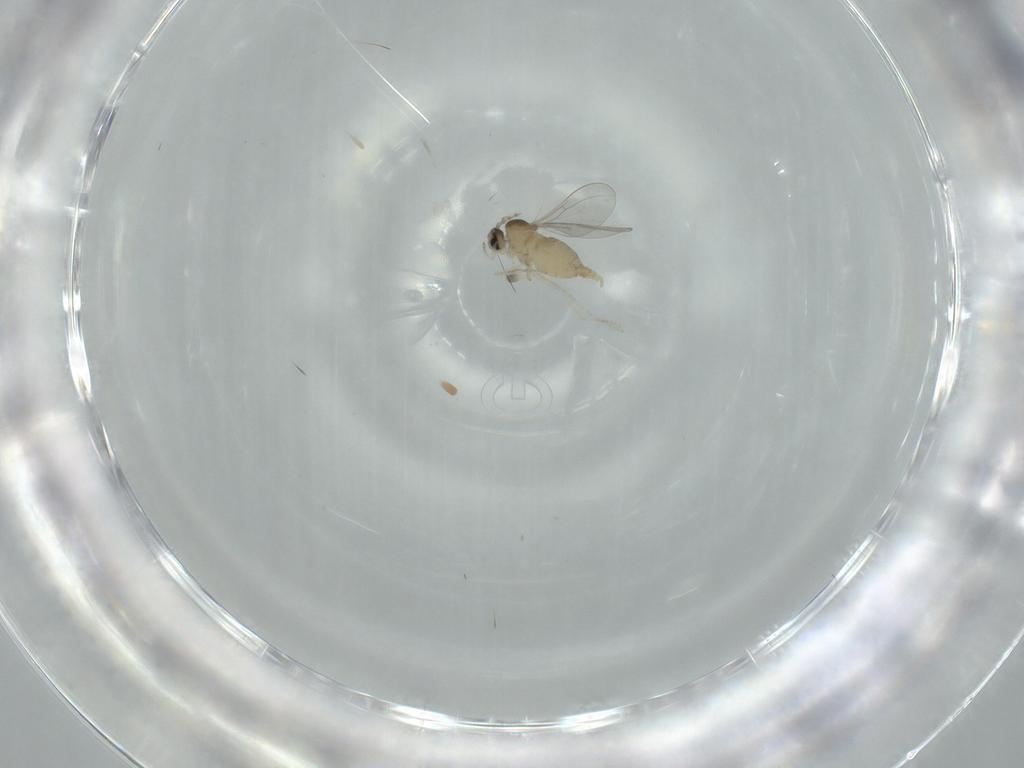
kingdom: Animalia
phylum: Arthropoda
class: Insecta
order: Diptera
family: Cecidomyiidae
